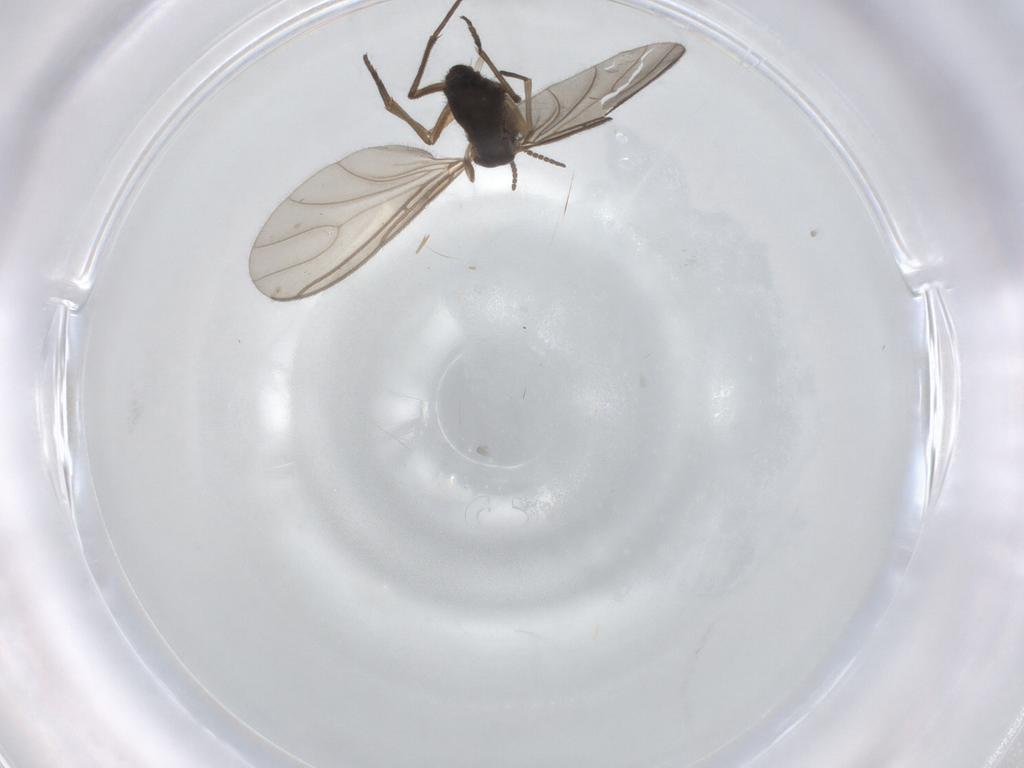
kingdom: Animalia
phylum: Arthropoda
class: Insecta
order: Diptera
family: Sciaridae
